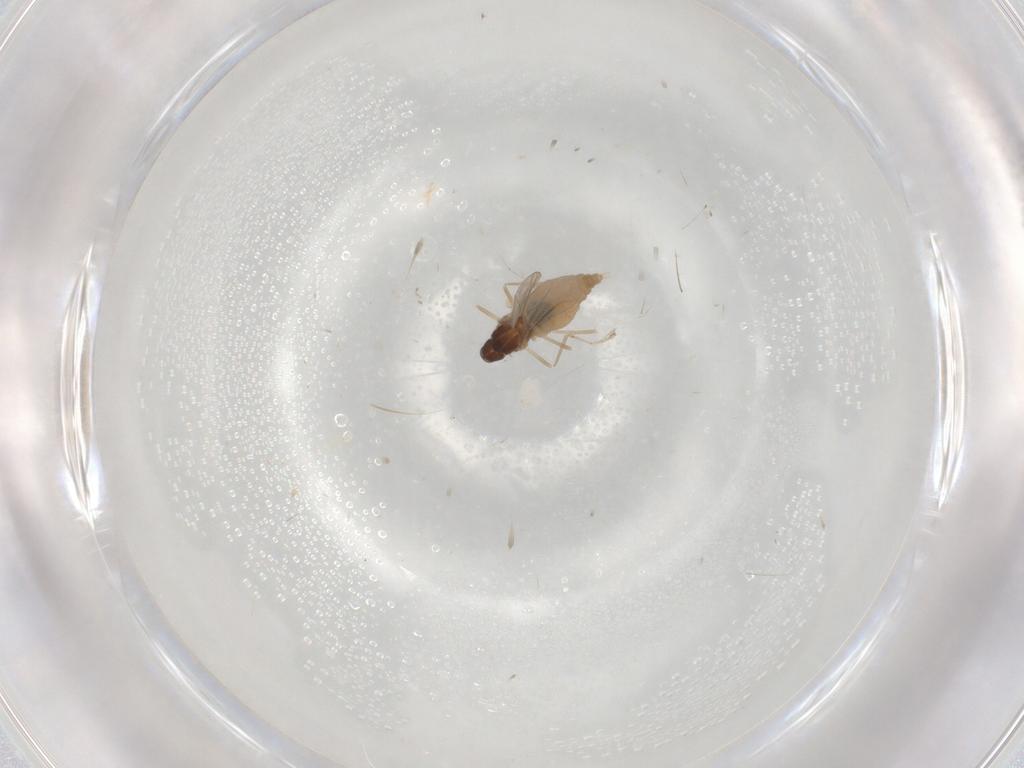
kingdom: Animalia
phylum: Arthropoda
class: Insecta
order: Diptera
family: Cecidomyiidae
